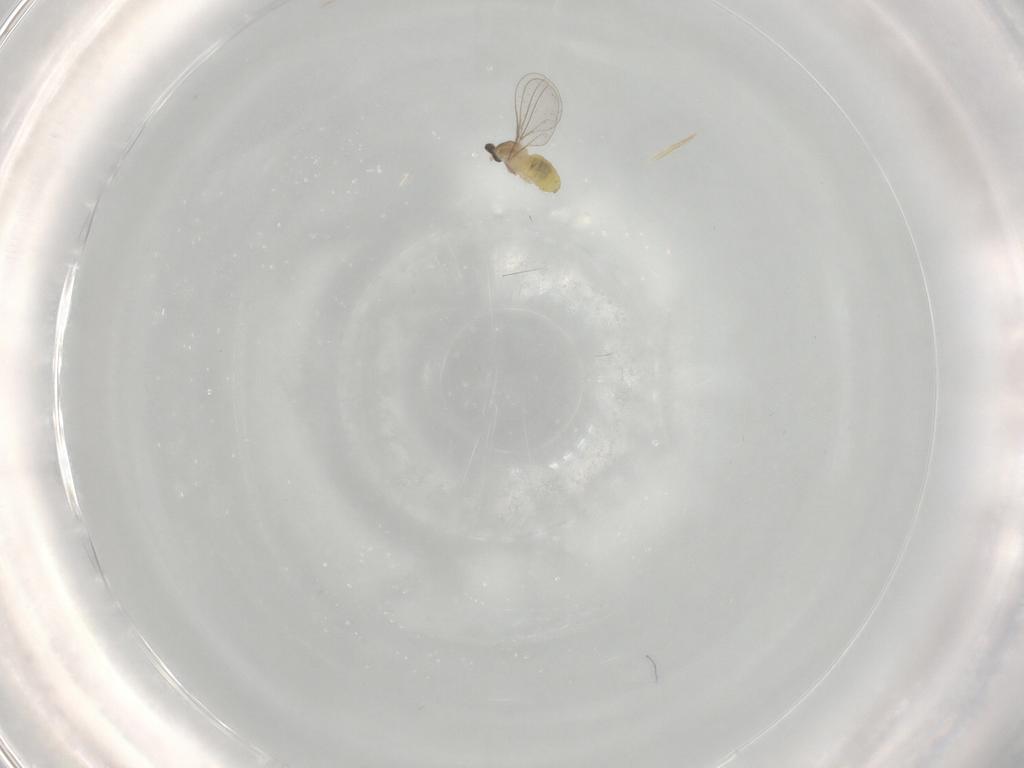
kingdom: Animalia
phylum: Arthropoda
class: Insecta
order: Diptera
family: Cecidomyiidae
